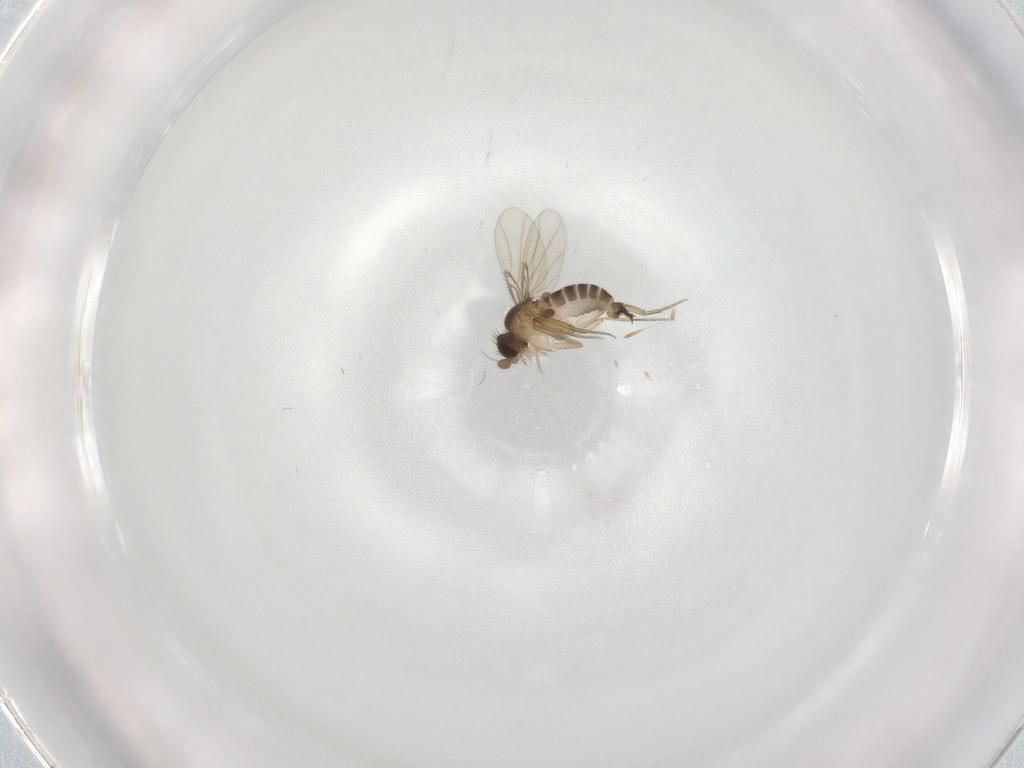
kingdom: Animalia
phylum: Arthropoda
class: Insecta
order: Diptera
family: Phoridae
